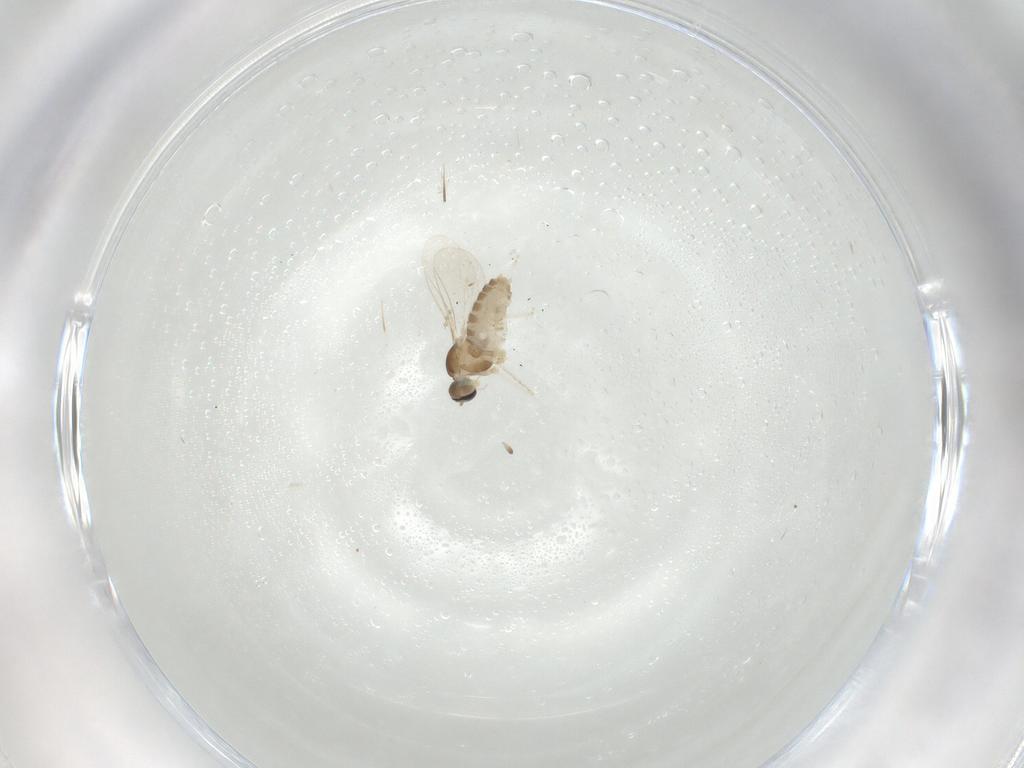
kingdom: Animalia
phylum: Arthropoda
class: Insecta
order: Diptera
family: Cecidomyiidae
